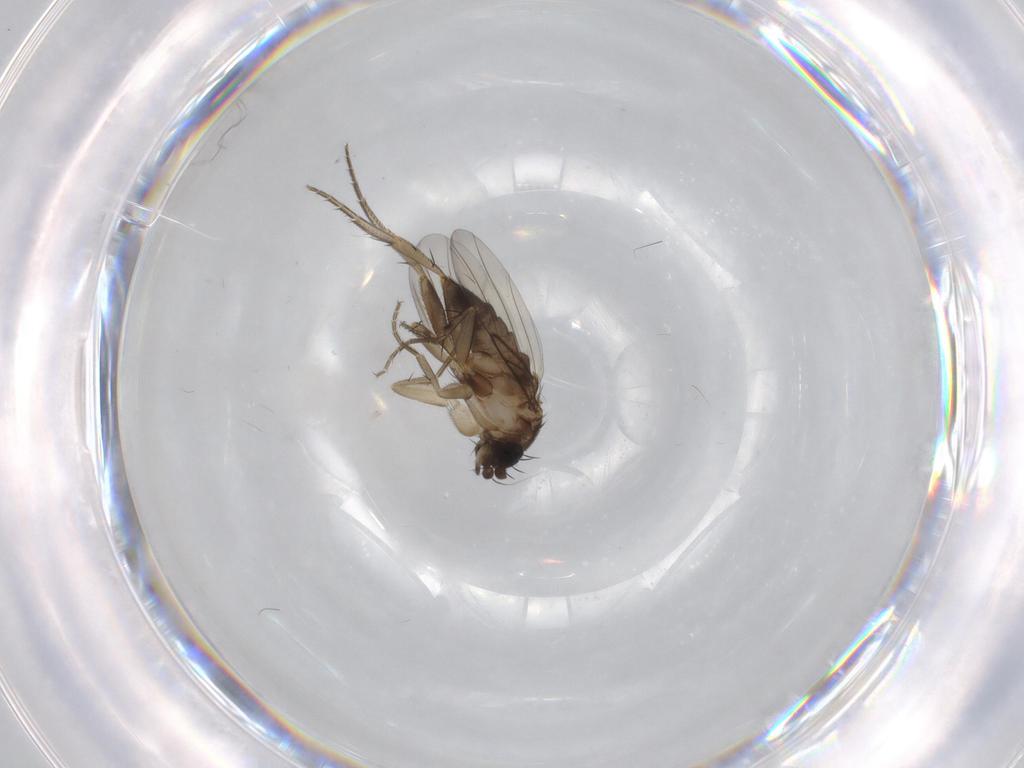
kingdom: Animalia
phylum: Arthropoda
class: Insecta
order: Diptera
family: Phoridae
